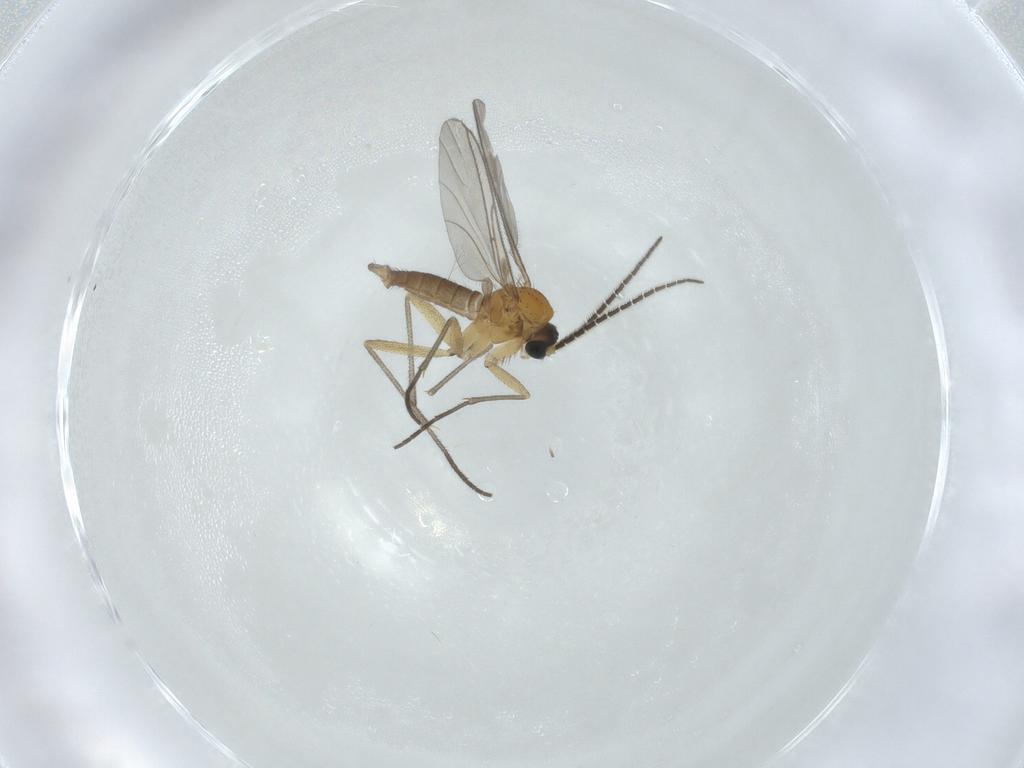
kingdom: Animalia
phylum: Arthropoda
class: Insecta
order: Diptera
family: Sciaridae
